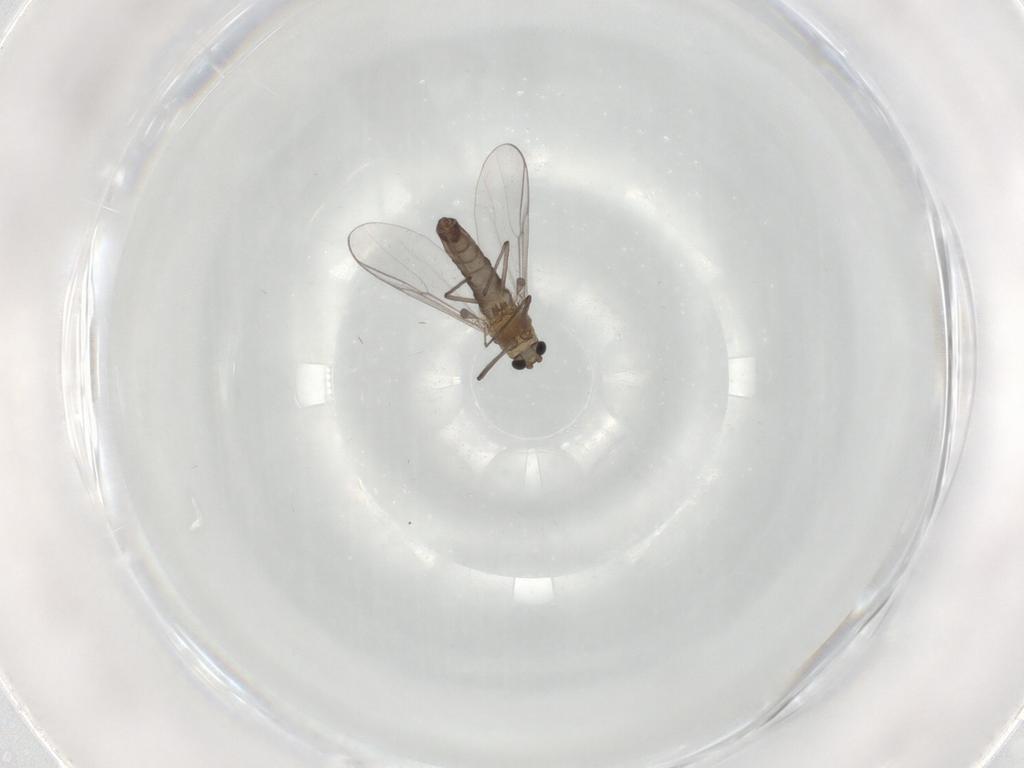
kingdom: Animalia
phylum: Arthropoda
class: Insecta
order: Diptera
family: Chironomidae
